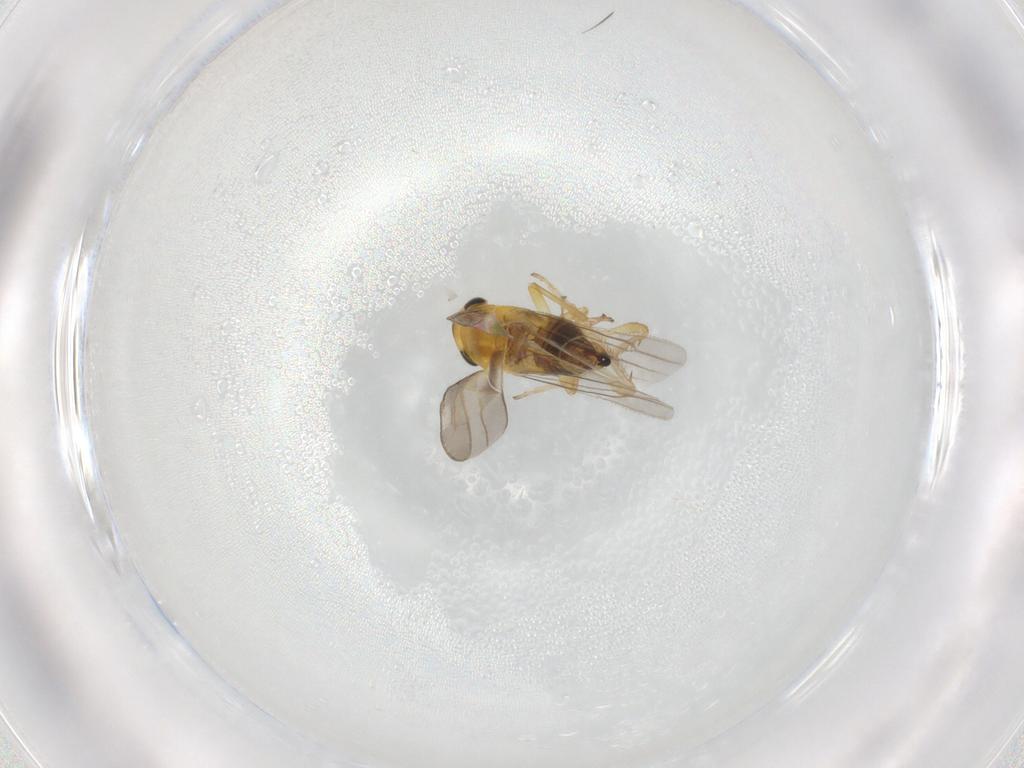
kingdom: Animalia
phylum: Arthropoda
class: Insecta
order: Hemiptera
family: Cicadellidae
